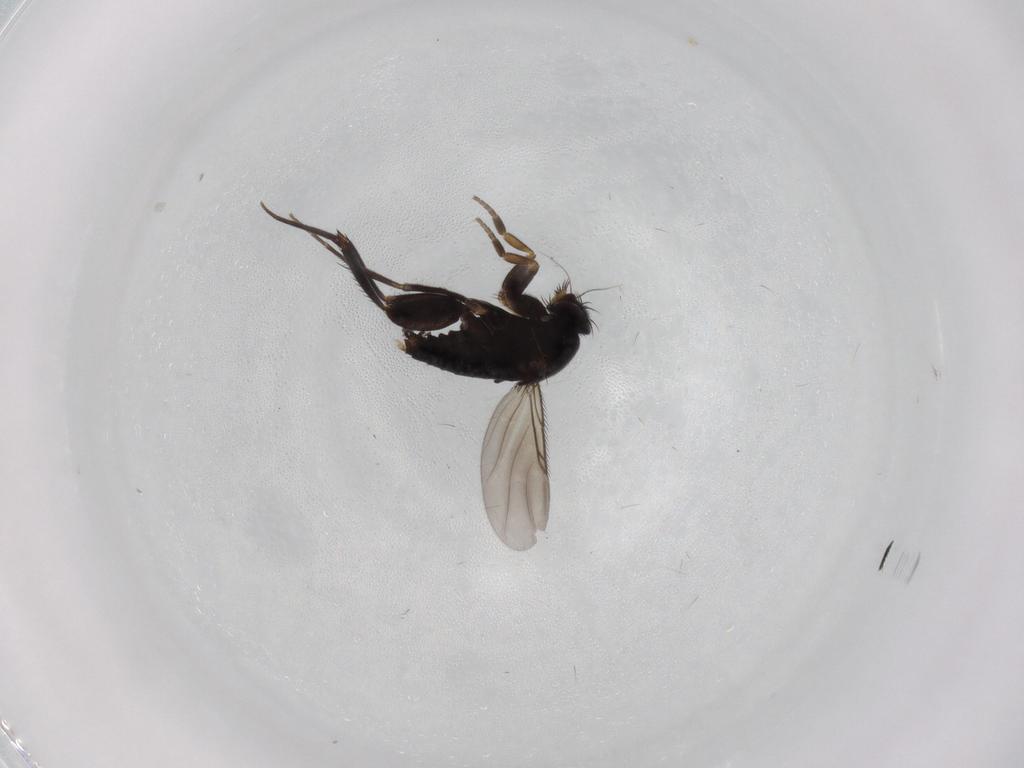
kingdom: Animalia
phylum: Arthropoda
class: Insecta
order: Diptera
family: Phoridae
